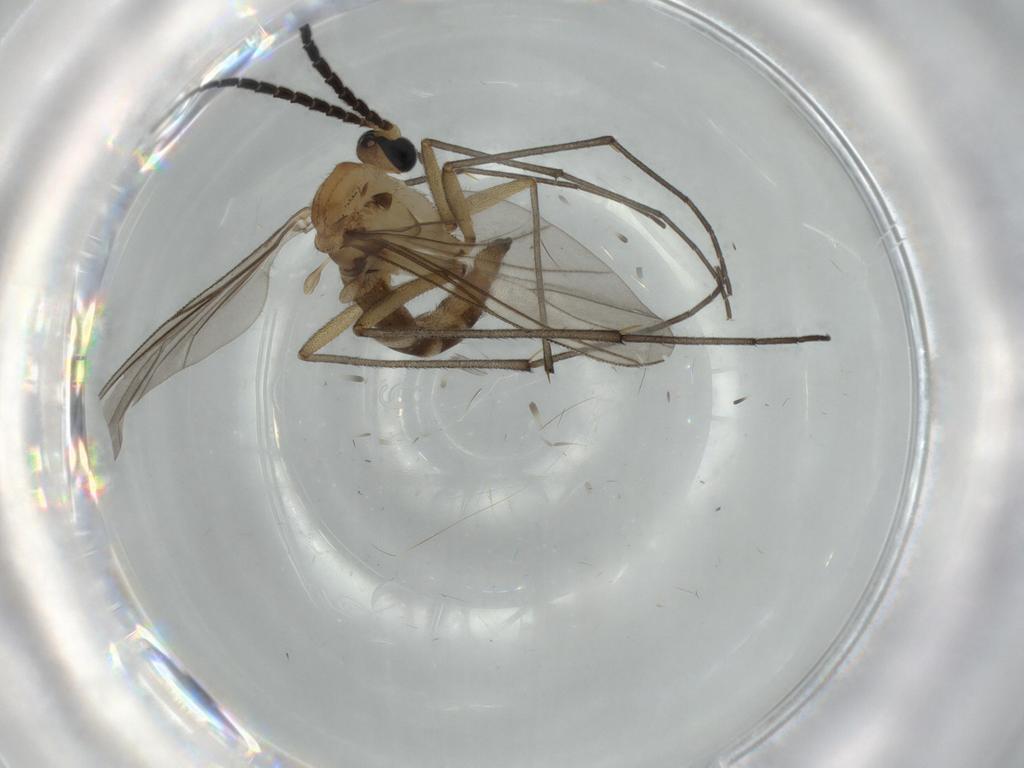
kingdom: Animalia
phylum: Arthropoda
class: Insecta
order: Diptera
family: Sciaridae
